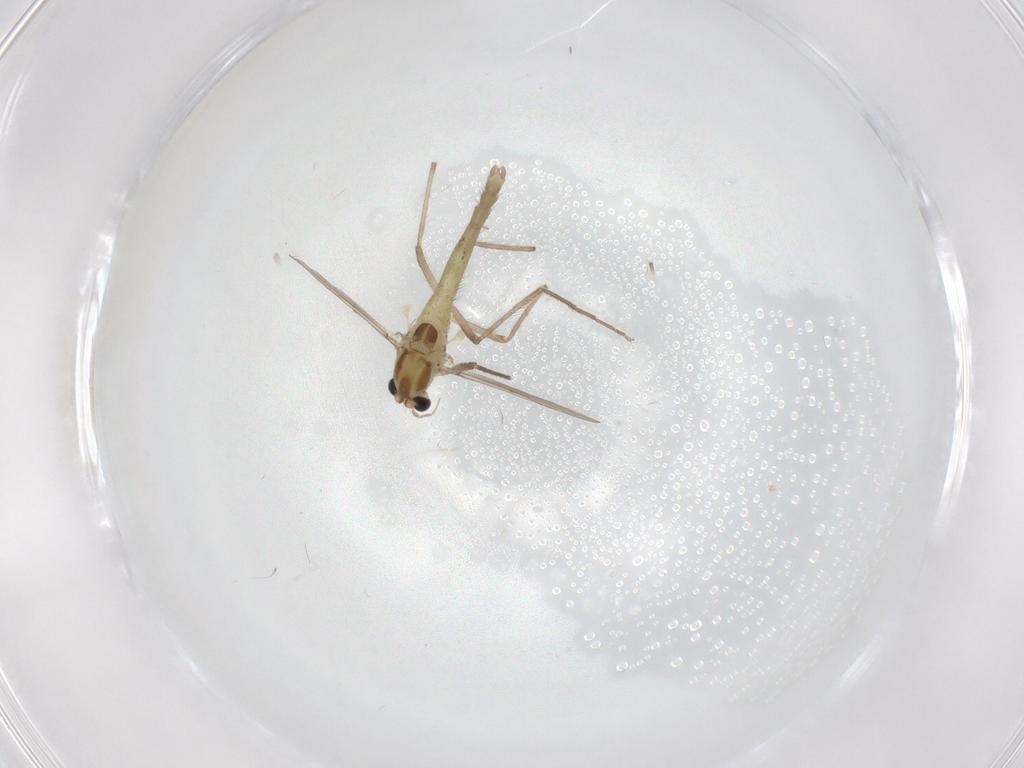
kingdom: Animalia
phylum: Arthropoda
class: Insecta
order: Diptera
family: Chironomidae
